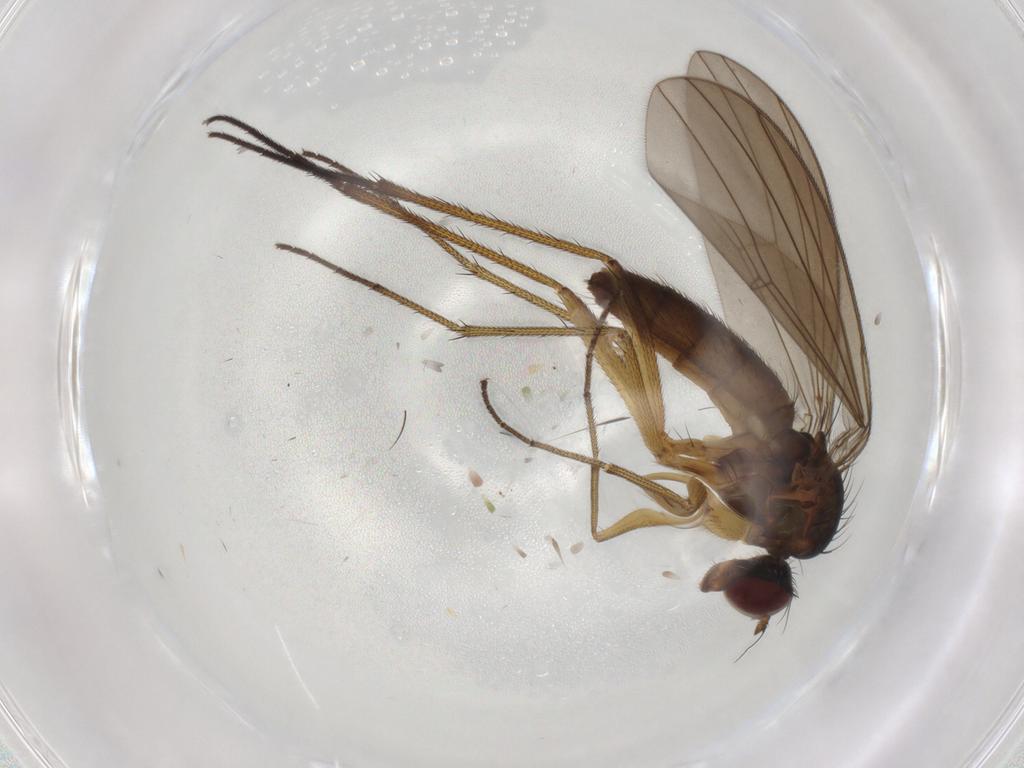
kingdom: Animalia
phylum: Arthropoda
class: Insecta
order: Diptera
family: Dolichopodidae
